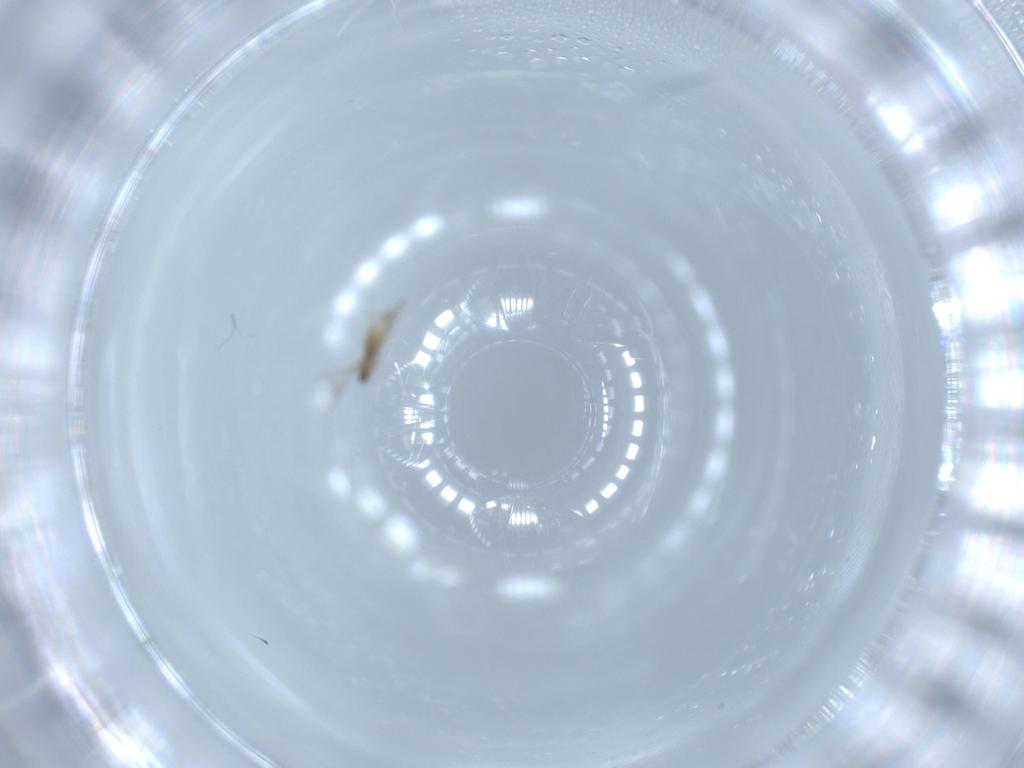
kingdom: Animalia
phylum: Arthropoda
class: Insecta
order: Diptera
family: Cecidomyiidae
